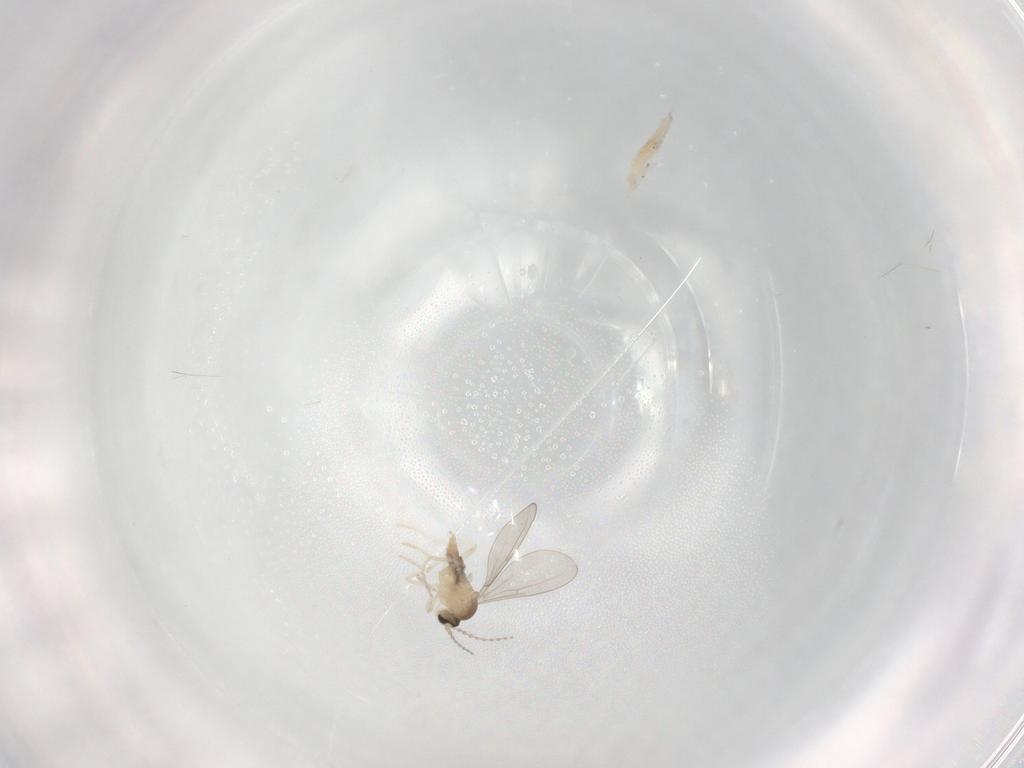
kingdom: Animalia
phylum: Arthropoda
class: Insecta
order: Diptera
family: Cecidomyiidae
